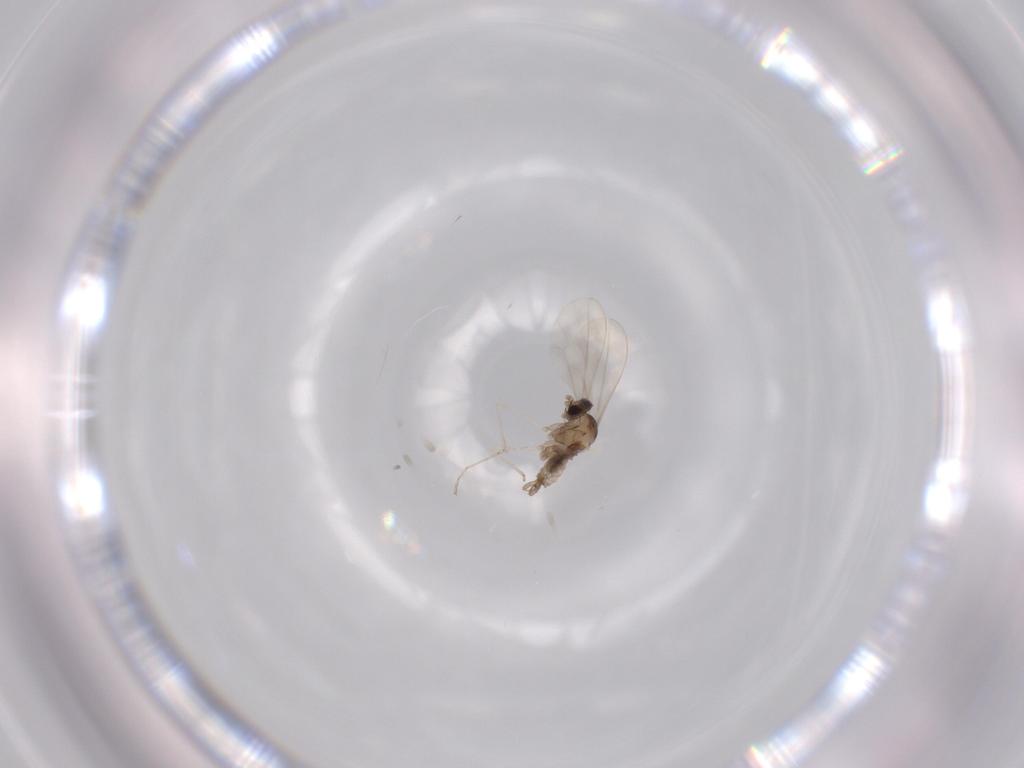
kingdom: Animalia
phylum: Arthropoda
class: Insecta
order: Diptera
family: Cecidomyiidae
